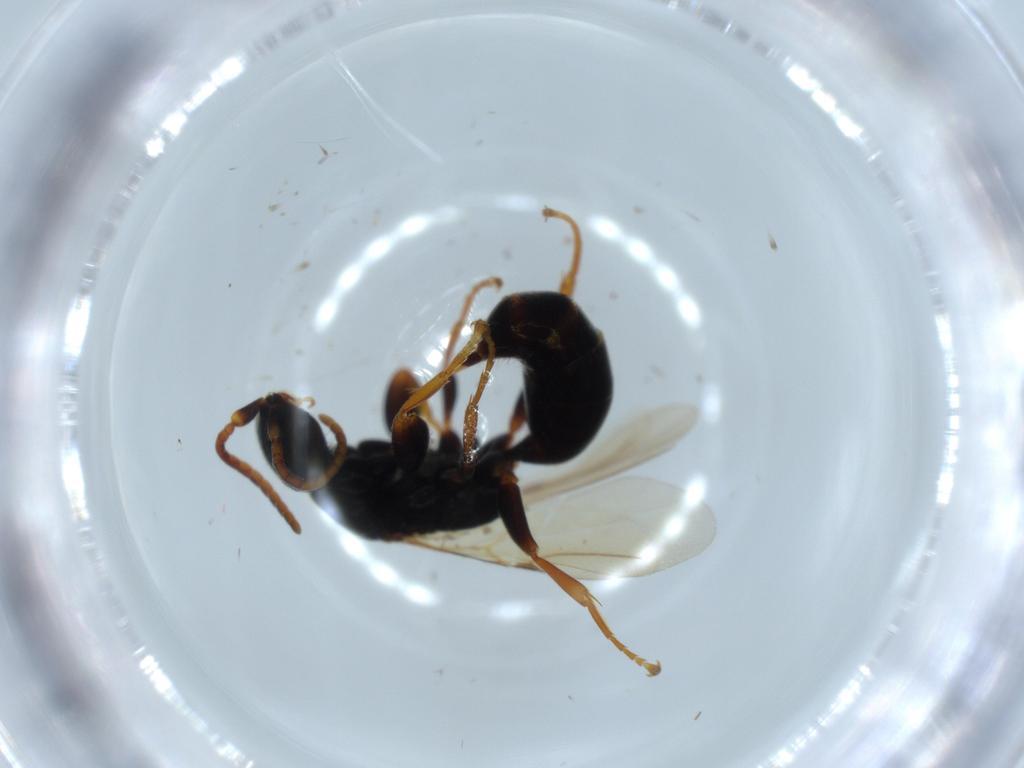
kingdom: Animalia
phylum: Arthropoda
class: Insecta
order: Hymenoptera
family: Bethylidae
